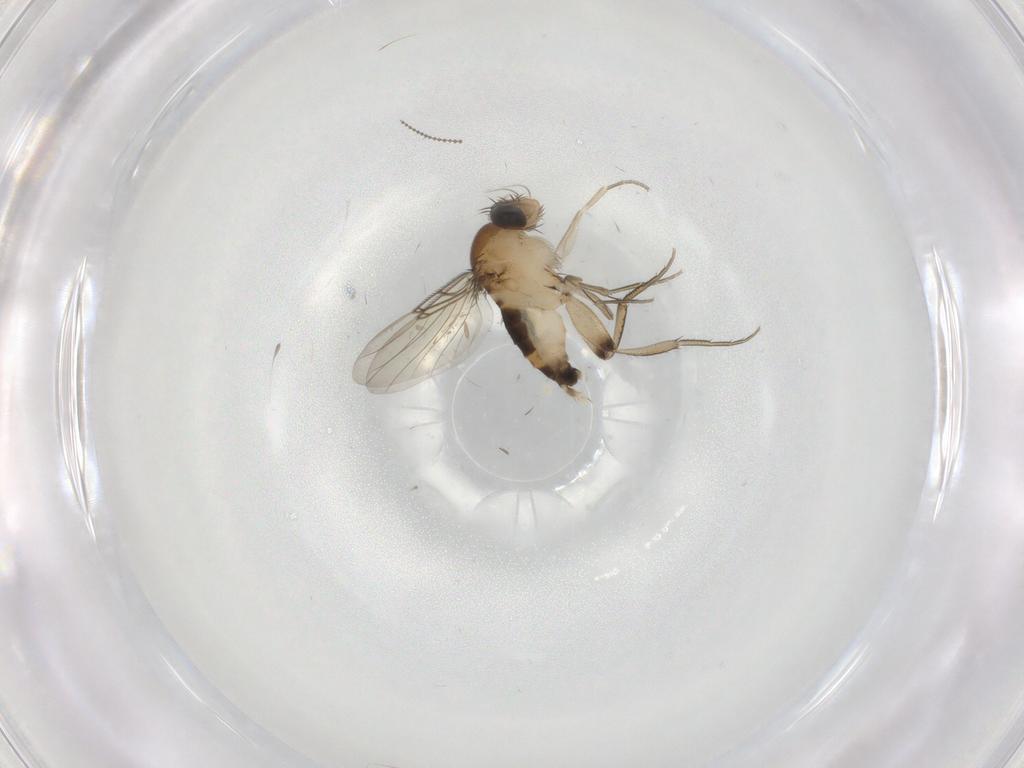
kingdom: Animalia
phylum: Arthropoda
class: Insecta
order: Diptera
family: Phoridae
